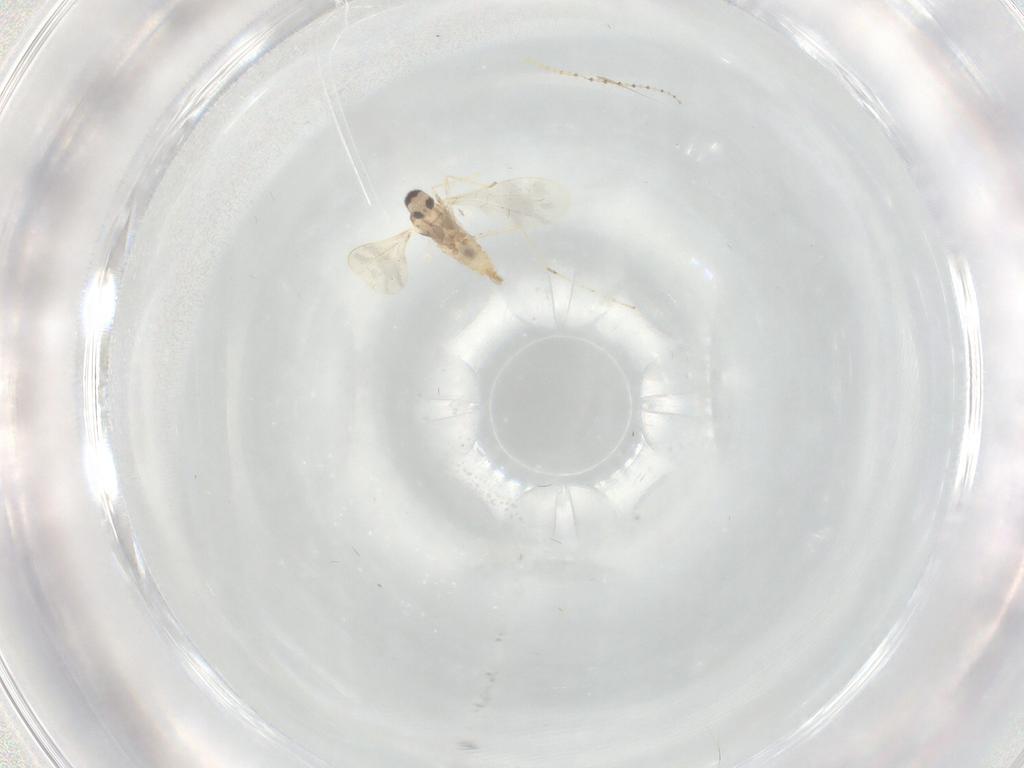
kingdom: Animalia
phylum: Arthropoda
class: Insecta
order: Diptera
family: Cecidomyiidae
